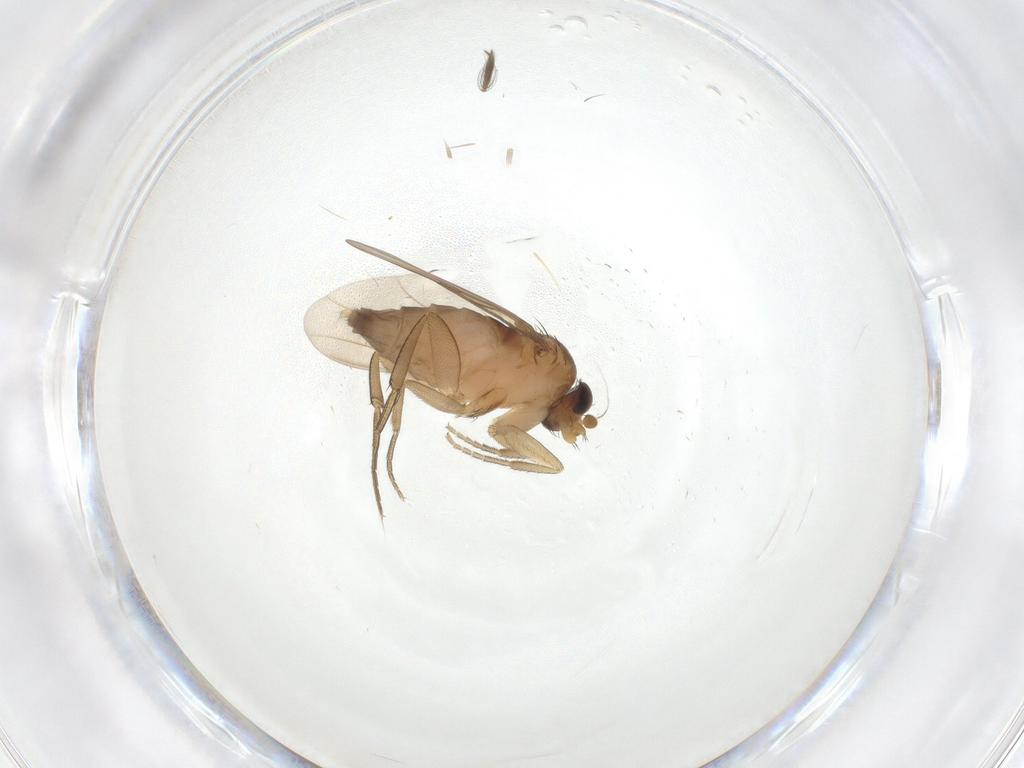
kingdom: Animalia
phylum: Arthropoda
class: Insecta
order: Diptera
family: Phoridae
